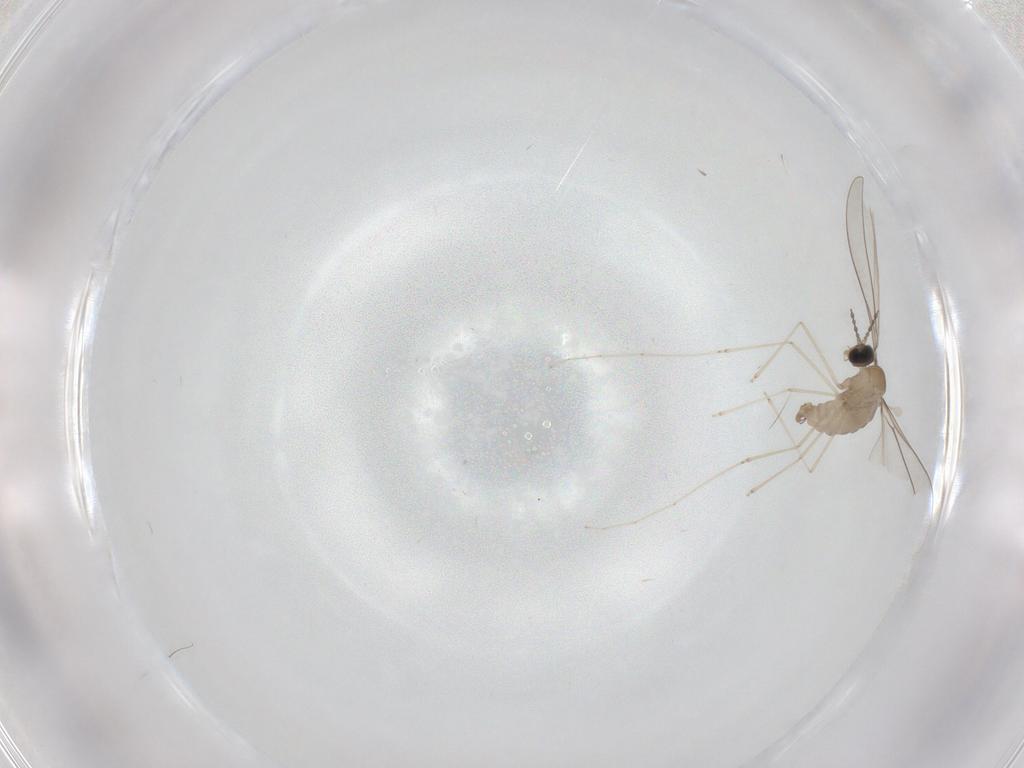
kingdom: Animalia
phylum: Arthropoda
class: Insecta
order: Diptera
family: Cecidomyiidae
